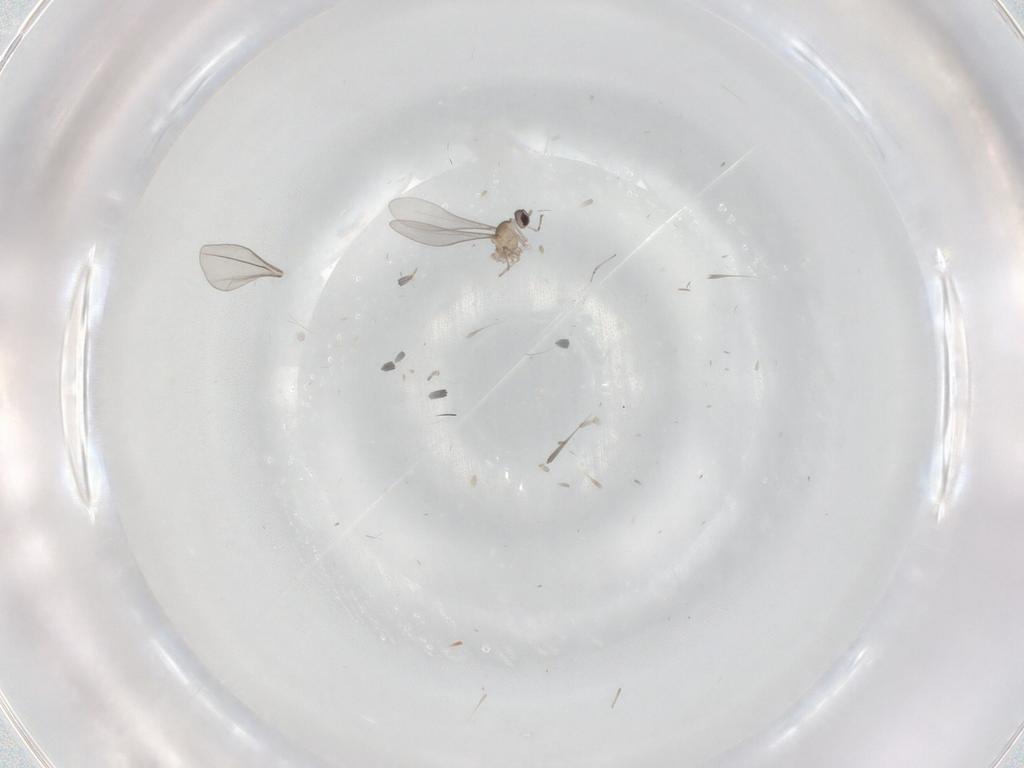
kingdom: Animalia
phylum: Arthropoda
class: Insecta
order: Diptera
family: Cecidomyiidae
